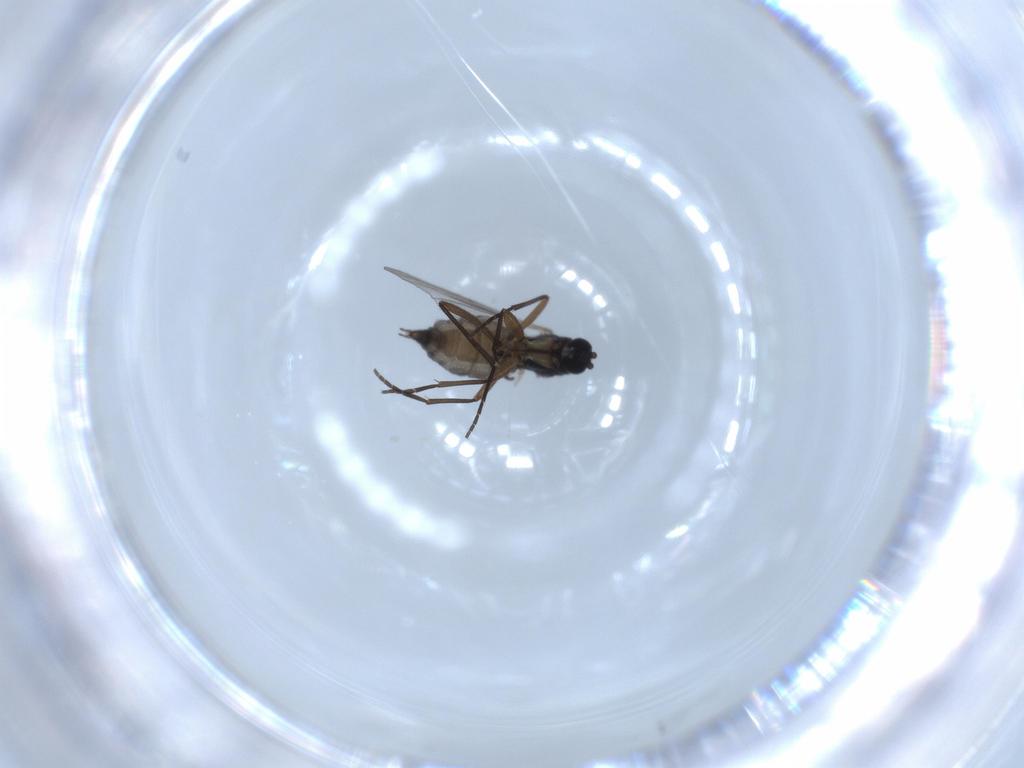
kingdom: Animalia
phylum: Arthropoda
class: Insecta
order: Diptera
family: Sciaridae
